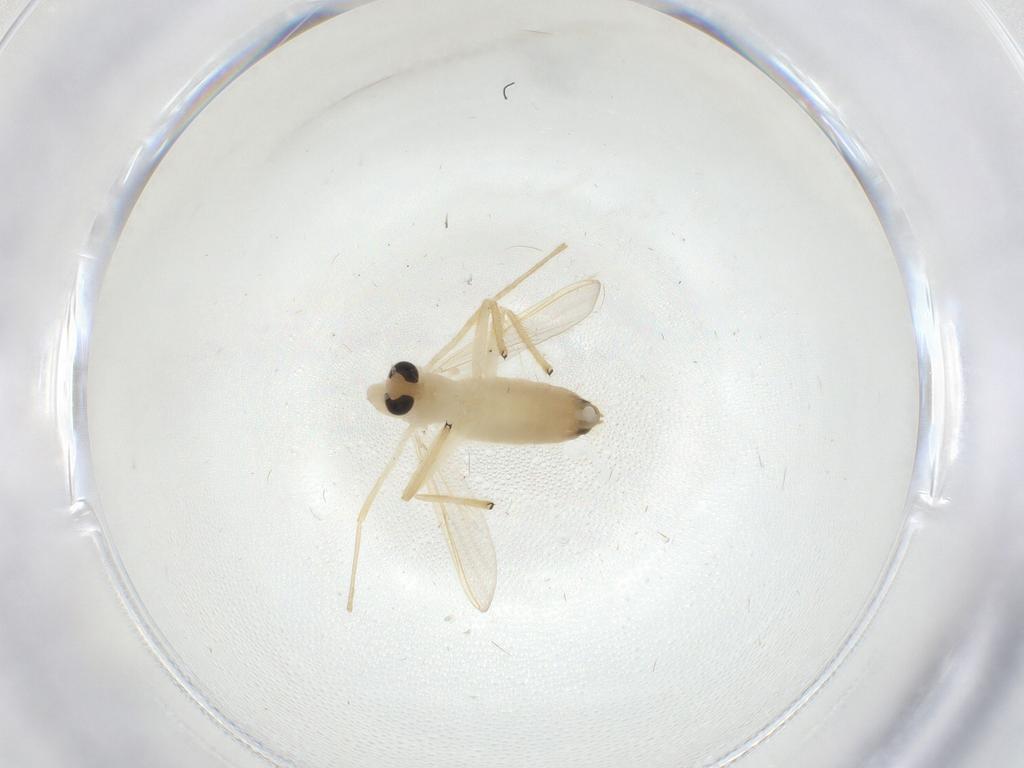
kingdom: Animalia
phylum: Arthropoda
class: Insecta
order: Diptera
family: Chironomidae
